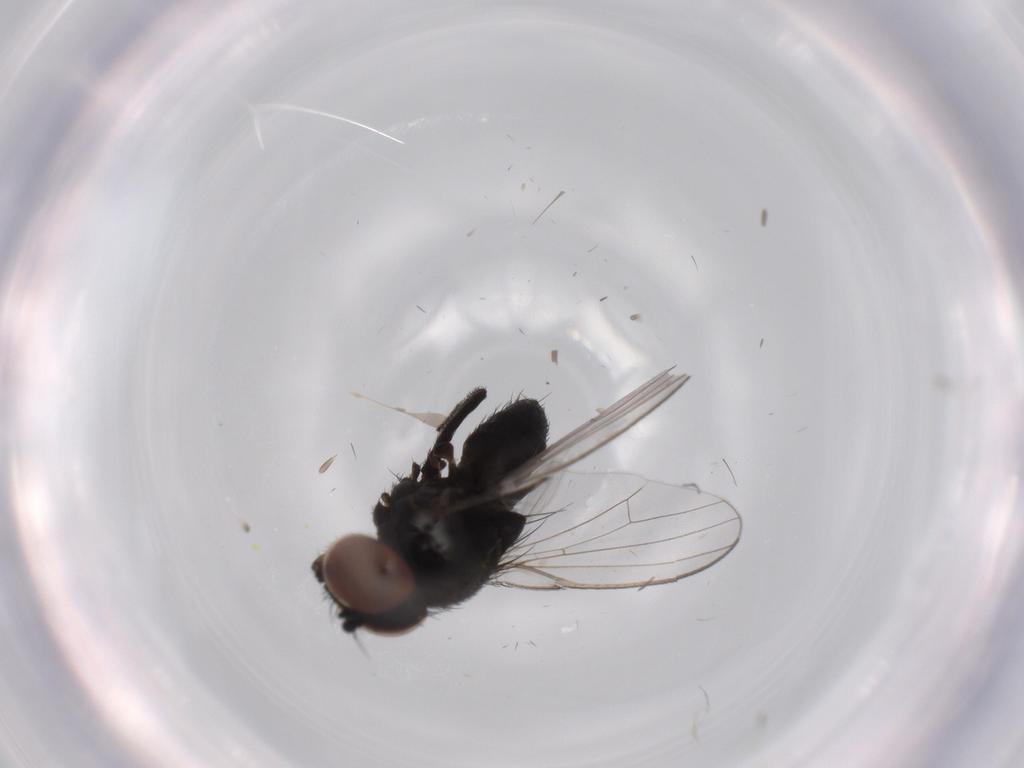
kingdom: Animalia
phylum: Arthropoda
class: Insecta
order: Diptera
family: Milichiidae
